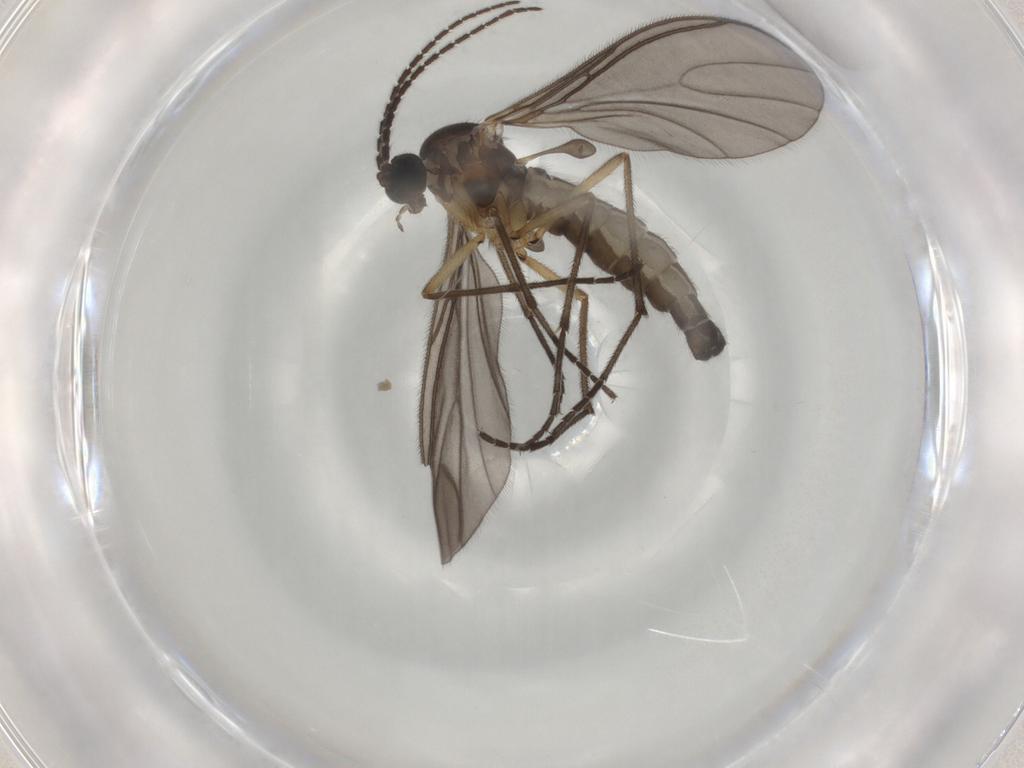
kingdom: Animalia
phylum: Arthropoda
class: Insecta
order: Diptera
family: Sciaridae
